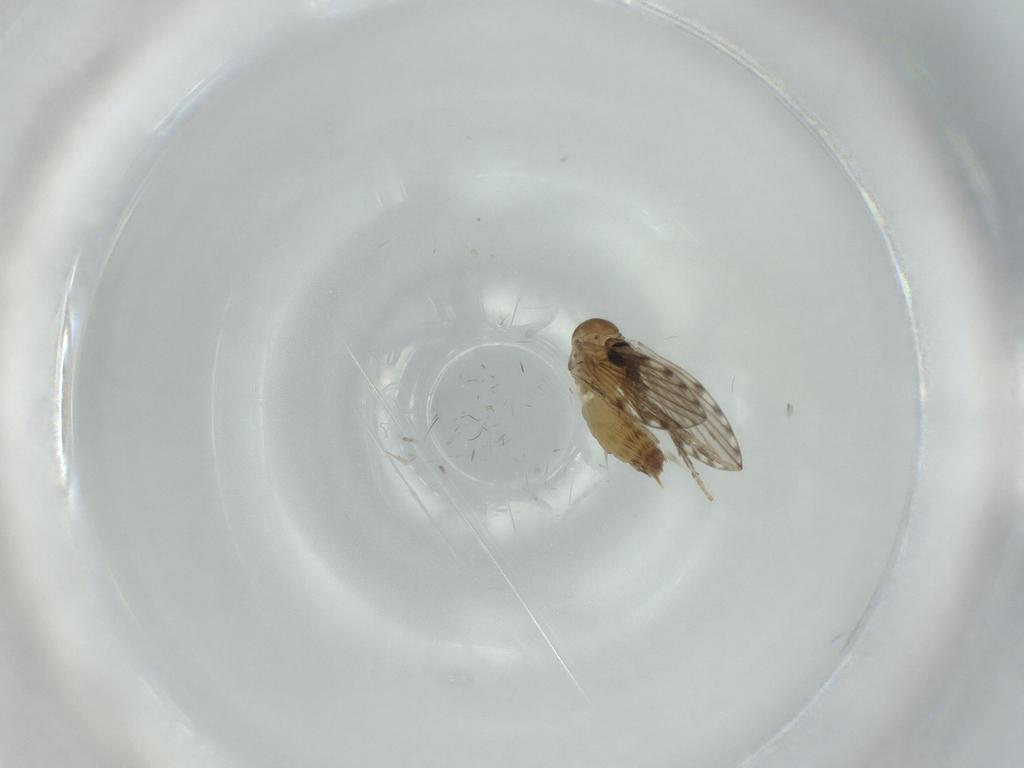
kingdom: Animalia
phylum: Arthropoda
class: Insecta
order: Diptera
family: Psychodidae
